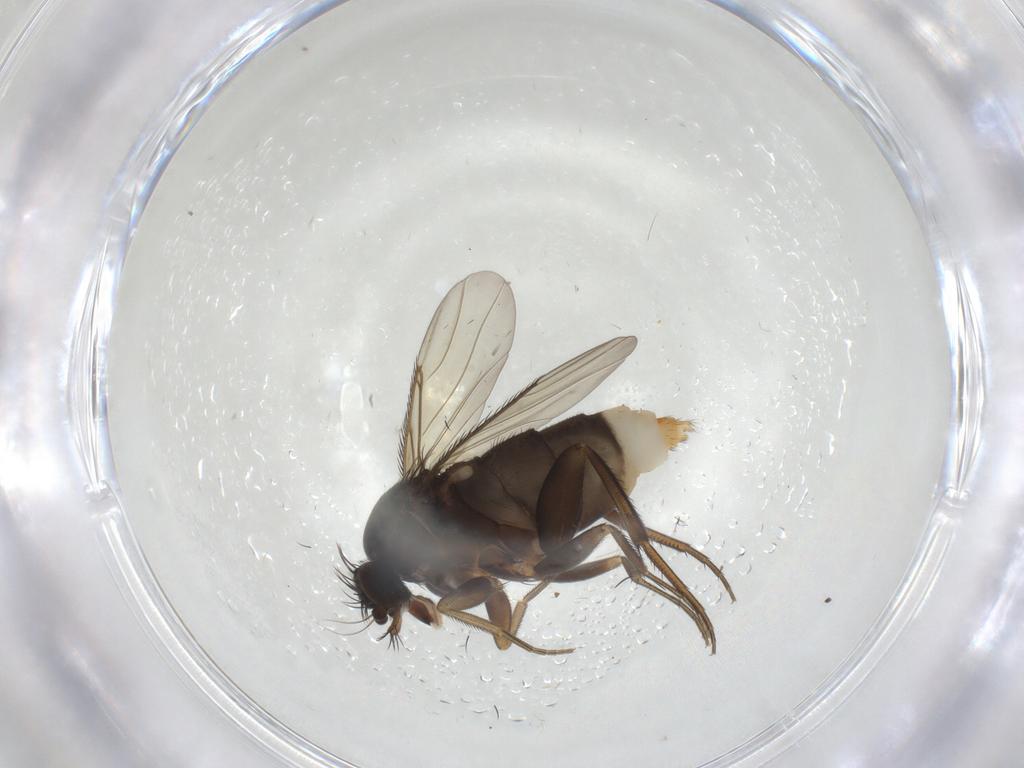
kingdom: Animalia
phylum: Arthropoda
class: Insecta
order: Diptera
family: Phoridae
